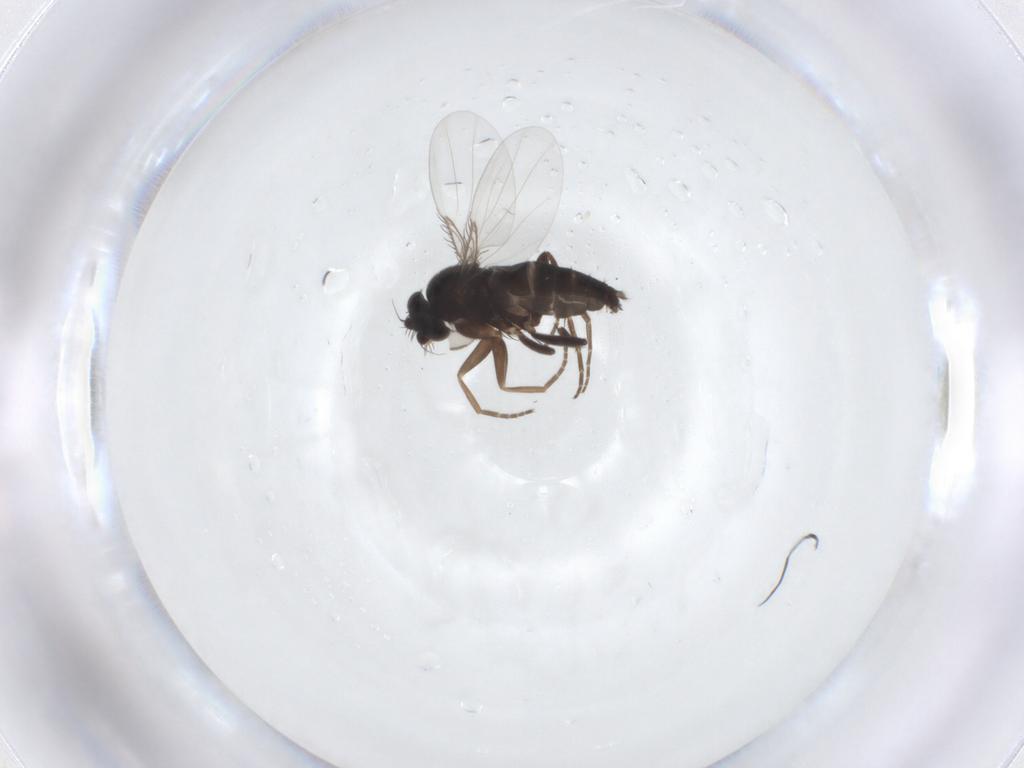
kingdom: Animalia
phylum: Arthropoda
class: Insecta
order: Diptera
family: Phoridae
